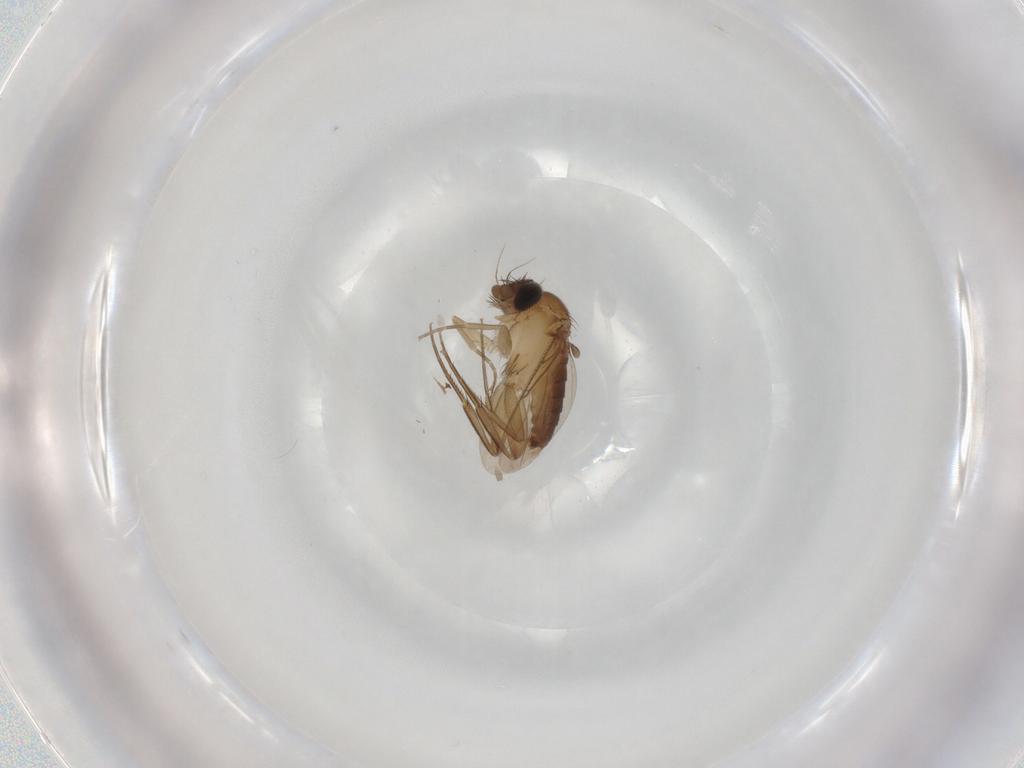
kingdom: Animalia
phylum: Arthropoda
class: Insecta
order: Diptera
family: Phoridae
